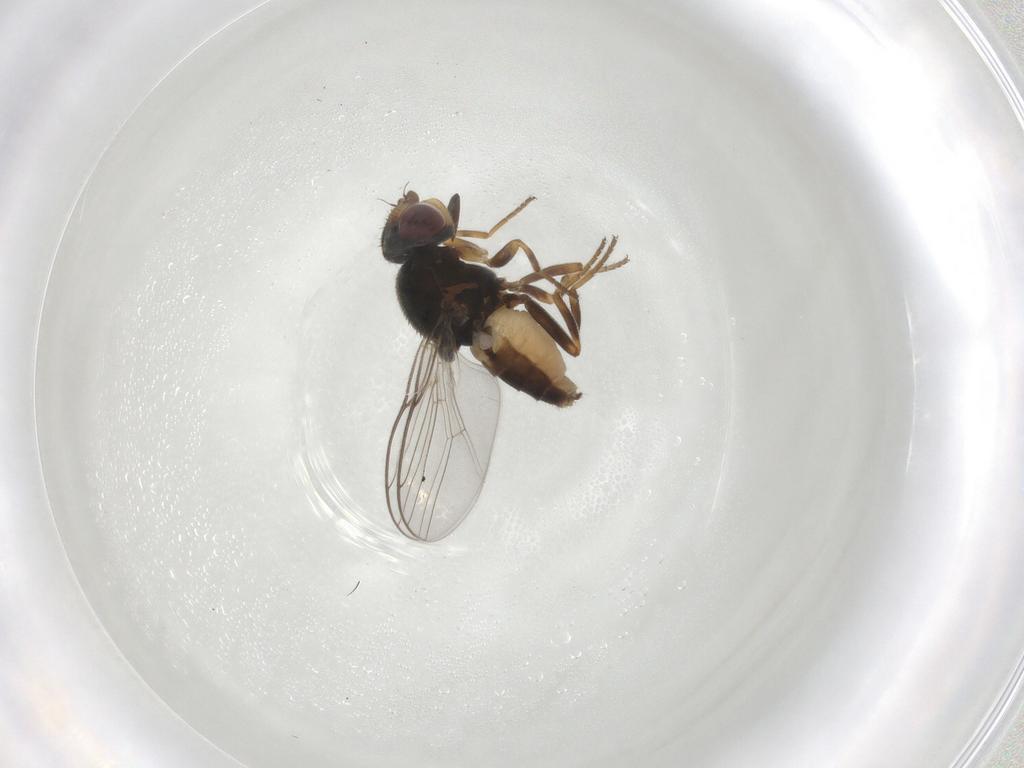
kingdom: Animalia
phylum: Arthropoda
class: Insecta
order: Diptera
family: Chloropidae
